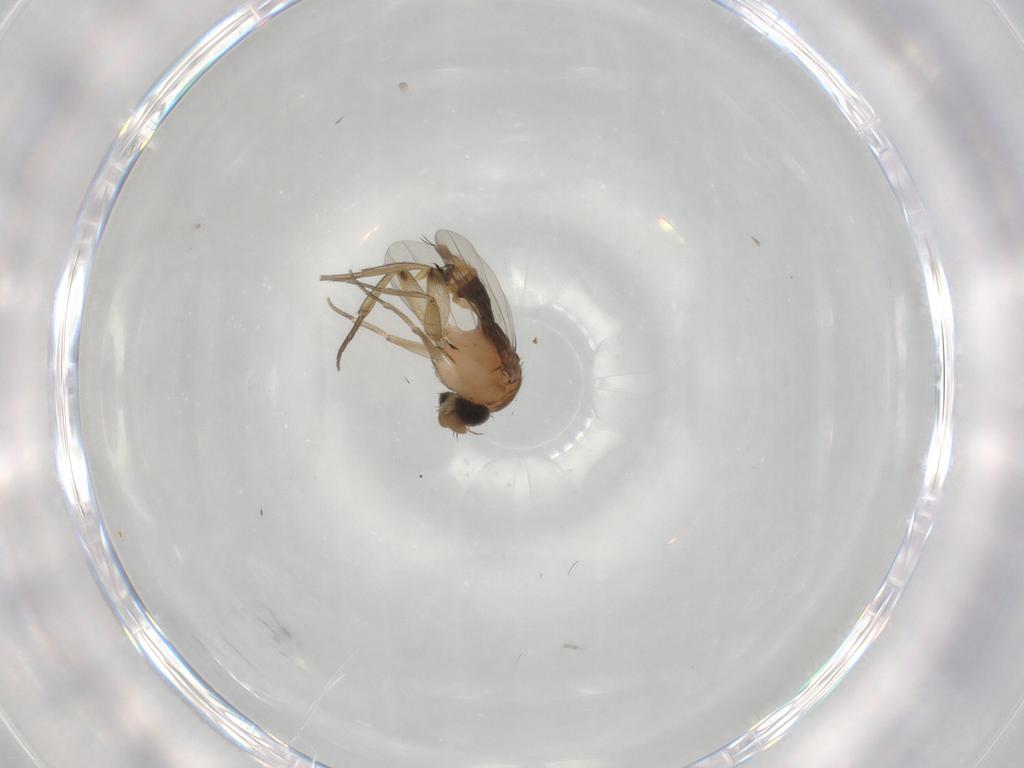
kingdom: Animalia
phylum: Arthropoda
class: Insecta
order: Diptera
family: Phoridae
